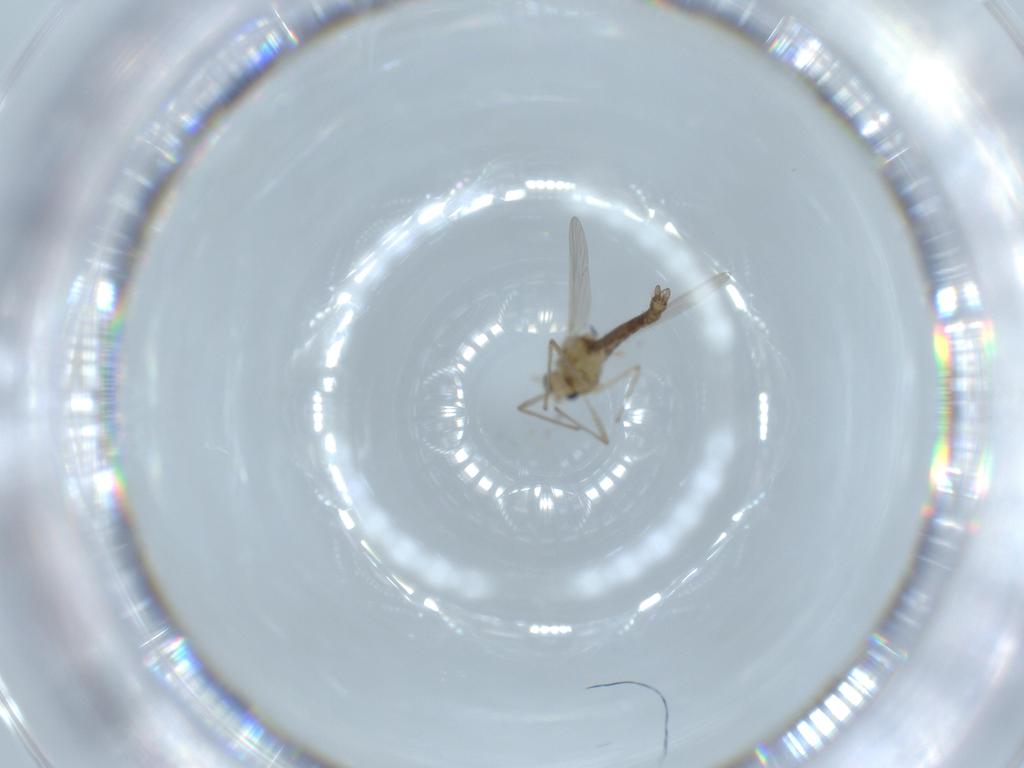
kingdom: Animalia
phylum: Arthropoda
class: Insecta
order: Diptera
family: Chironomidae
